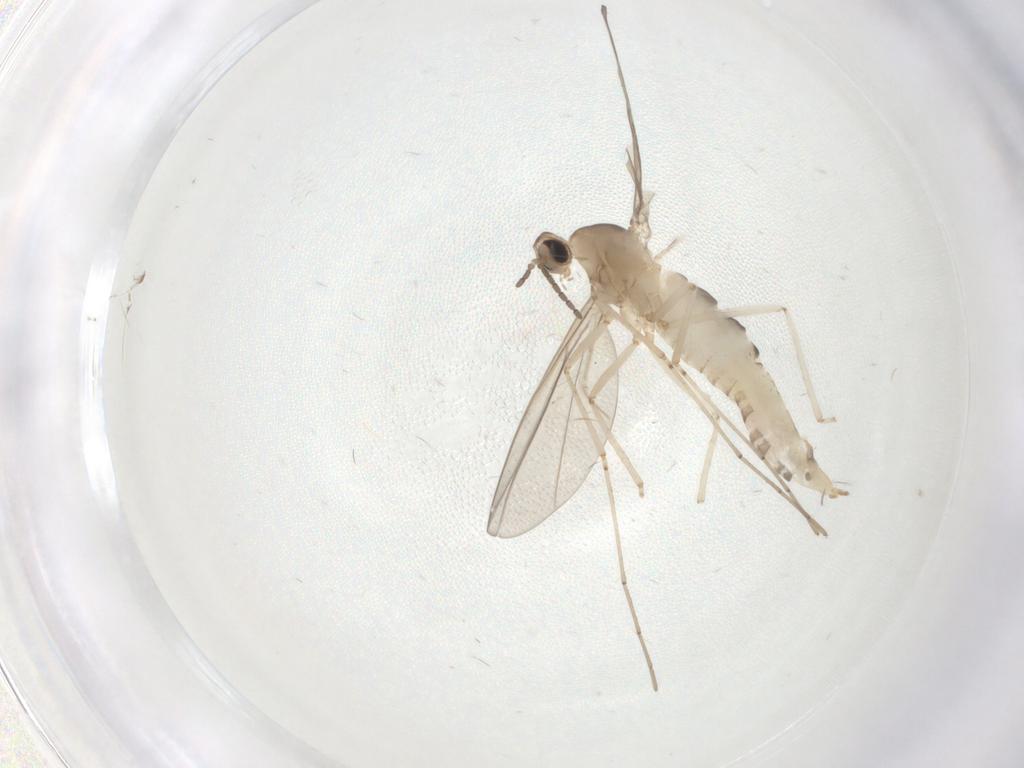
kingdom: Animalia
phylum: Arthropoda
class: Insecta
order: Diptera
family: Cecidomyiidae
